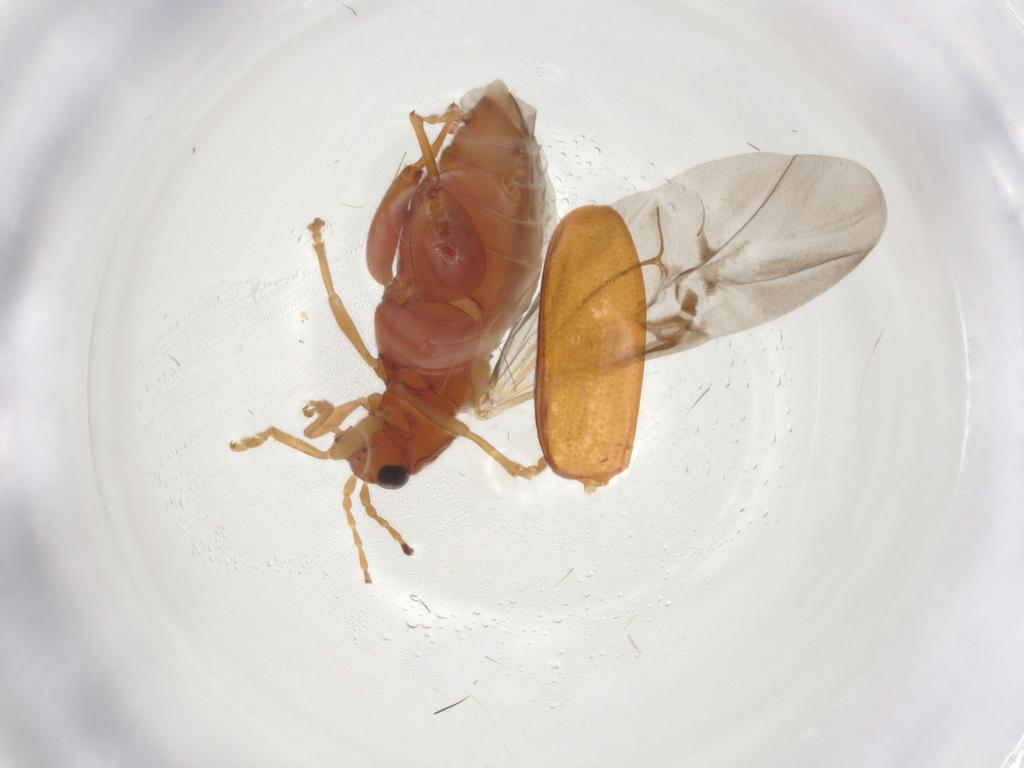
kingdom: Animalia
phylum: Arthropoda
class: Insecta
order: Coleoptera
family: Chrysomelidae
